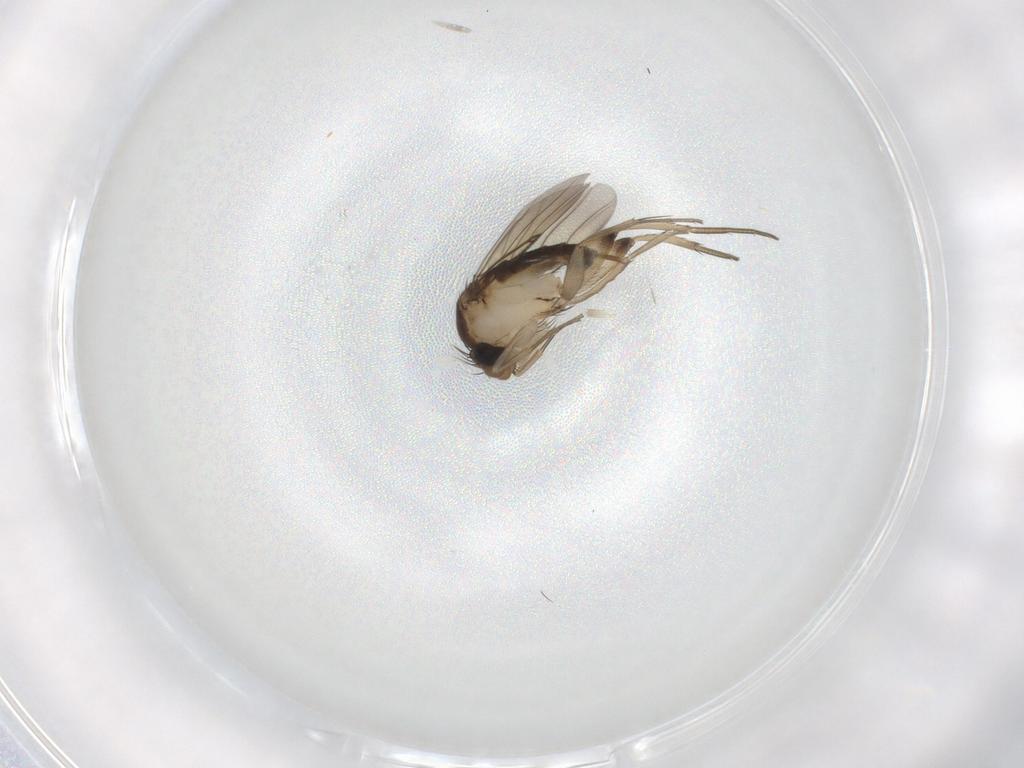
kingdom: Animalia
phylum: Arthropoda
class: Insecta
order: Diptera
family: Phoridae
